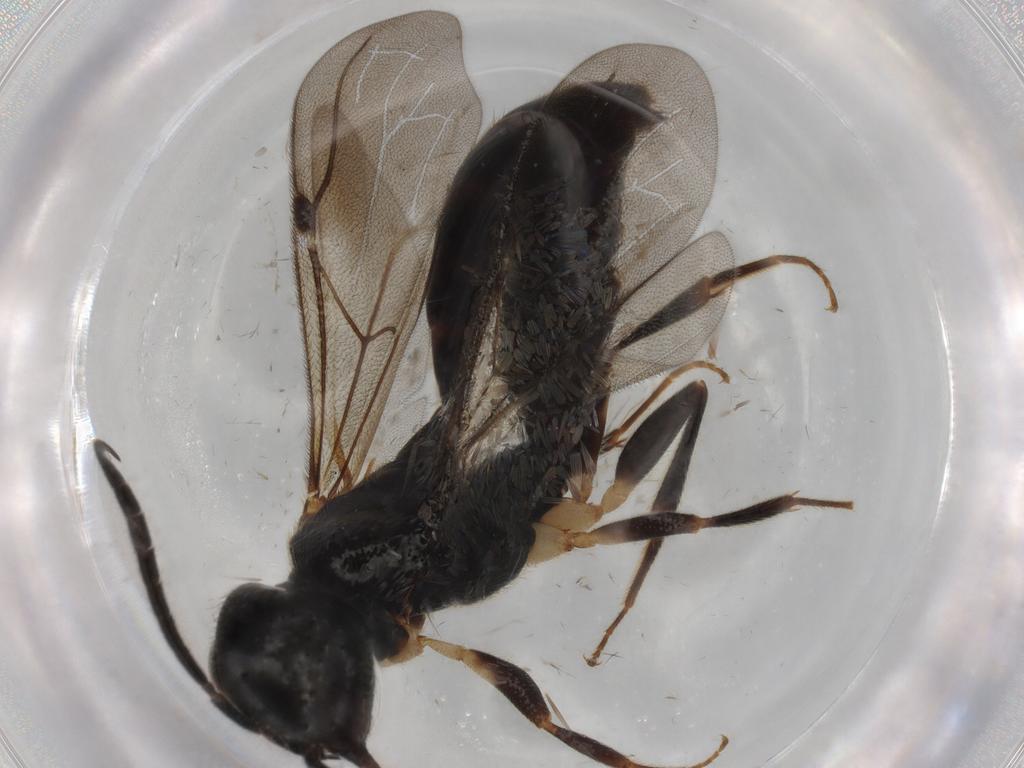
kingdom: Animalia
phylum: Arthropoda
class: Insecta
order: Hymenoptera
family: Bethylidae
